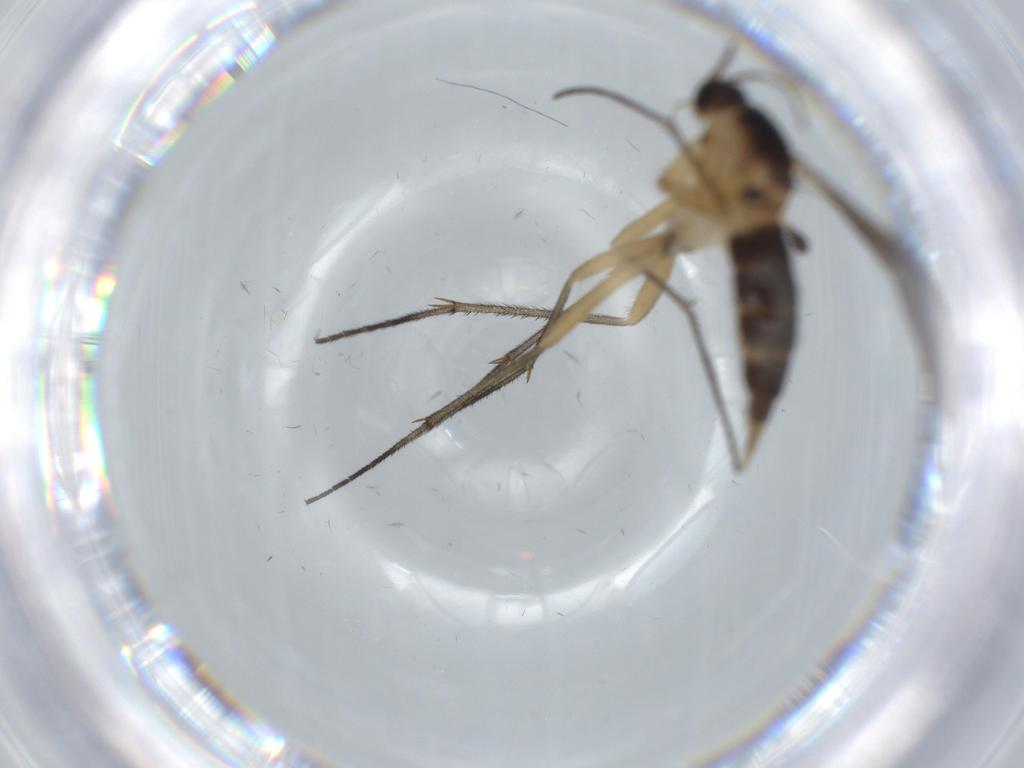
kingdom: Animalia
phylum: Arthropoda
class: Insecta
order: Diptera
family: Sciaridae
